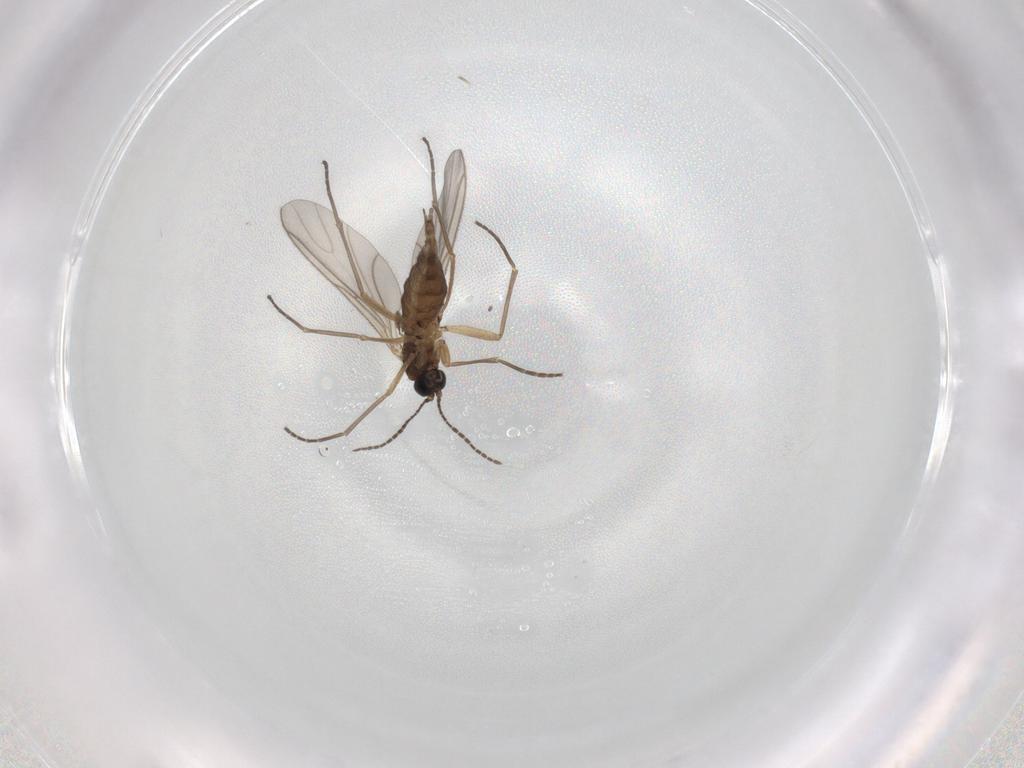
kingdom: Animalia
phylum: Arthropoda
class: Insecta
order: Diptera
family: Sciaridae
